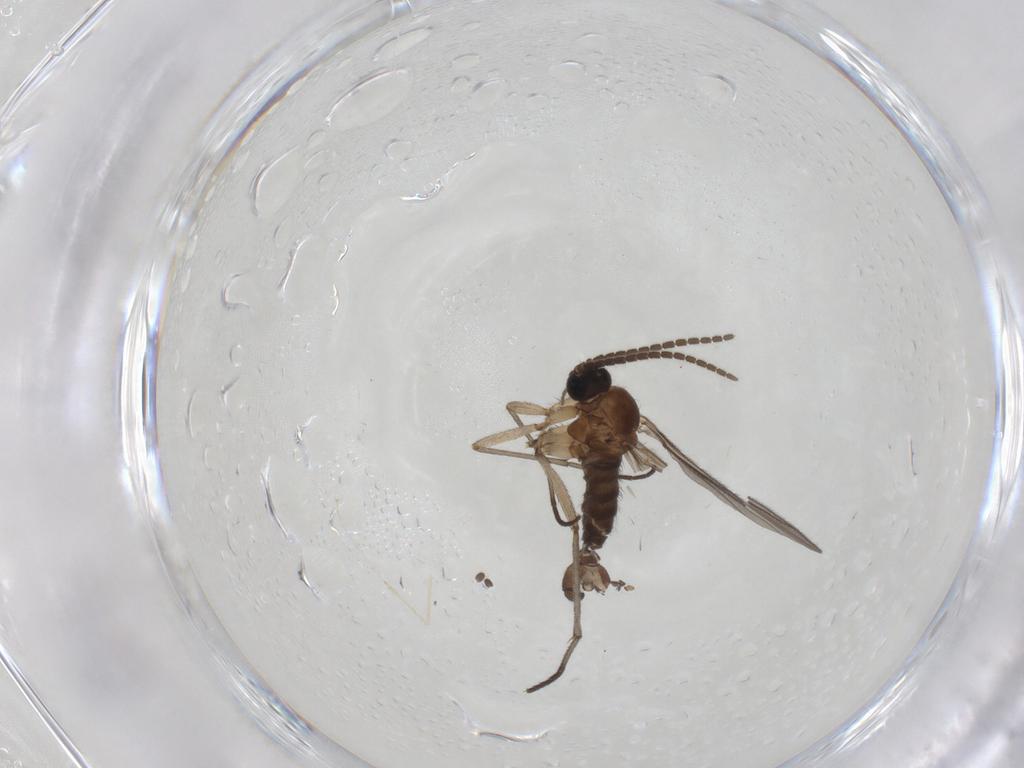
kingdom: Animalia
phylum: Arthropoda
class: Insecta
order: Diptera
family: Sciaridae
